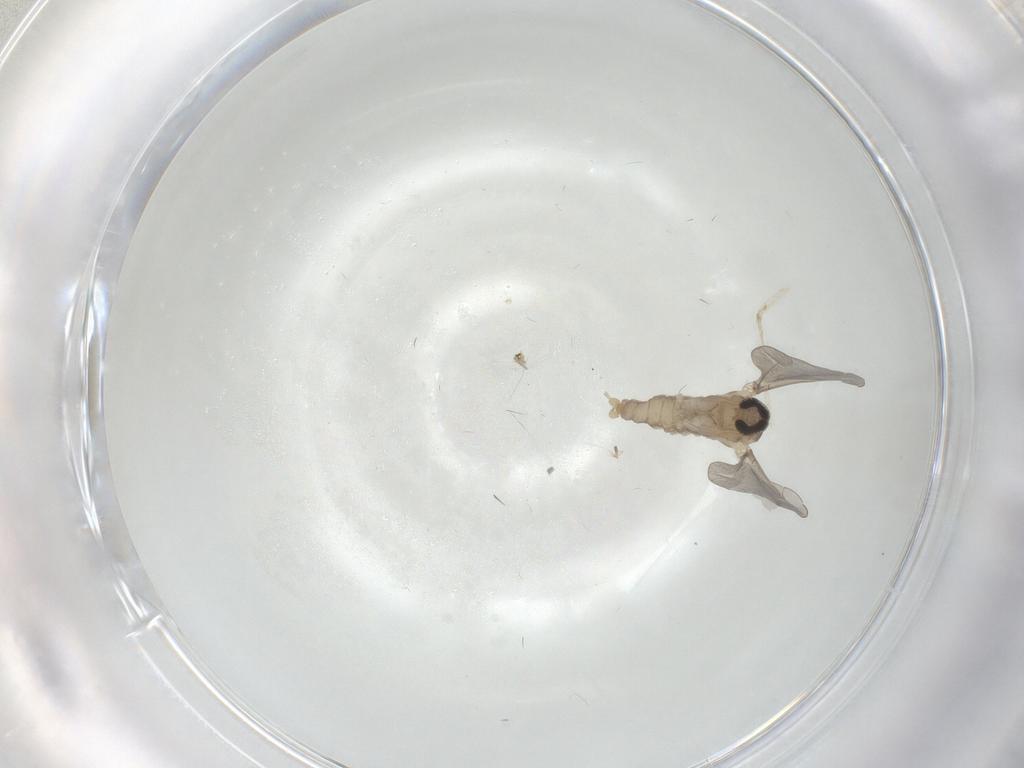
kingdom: Animalia
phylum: Arthropoda
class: Insecta
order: Diptera
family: Cecidomyiidae
